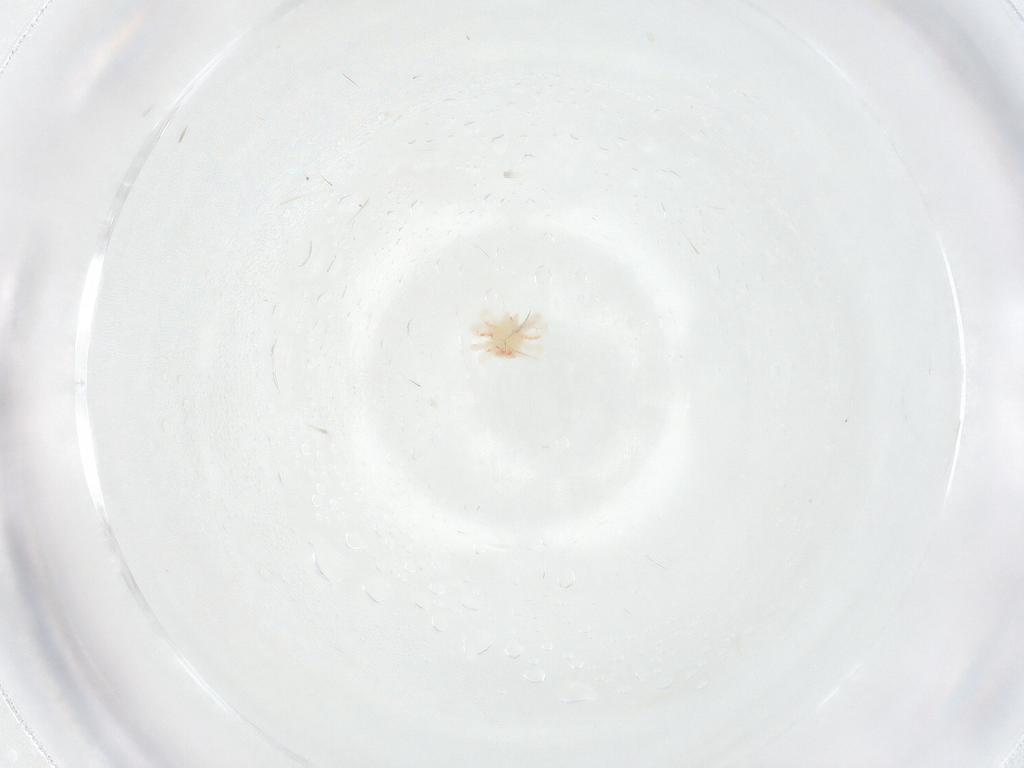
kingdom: Animalia
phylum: Arthropoda
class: Arachnida
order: Trombidiformes
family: Anystidae
